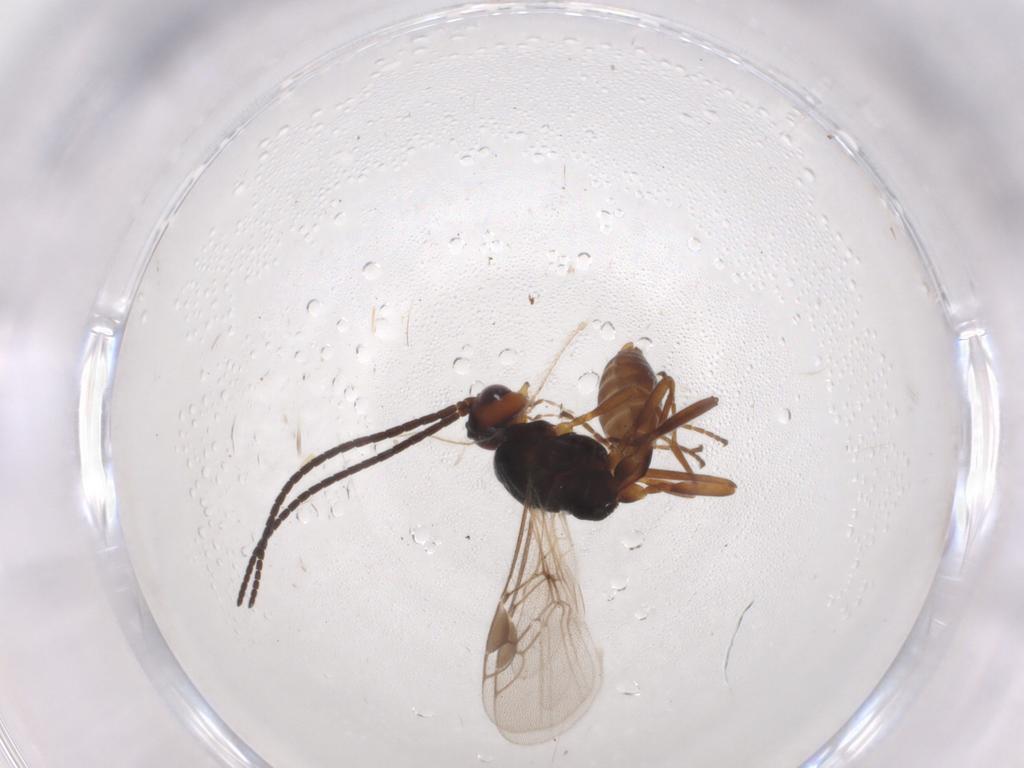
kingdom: Animalia
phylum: Arthropoda
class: Insecta
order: Hymenoptera
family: Braconidae
